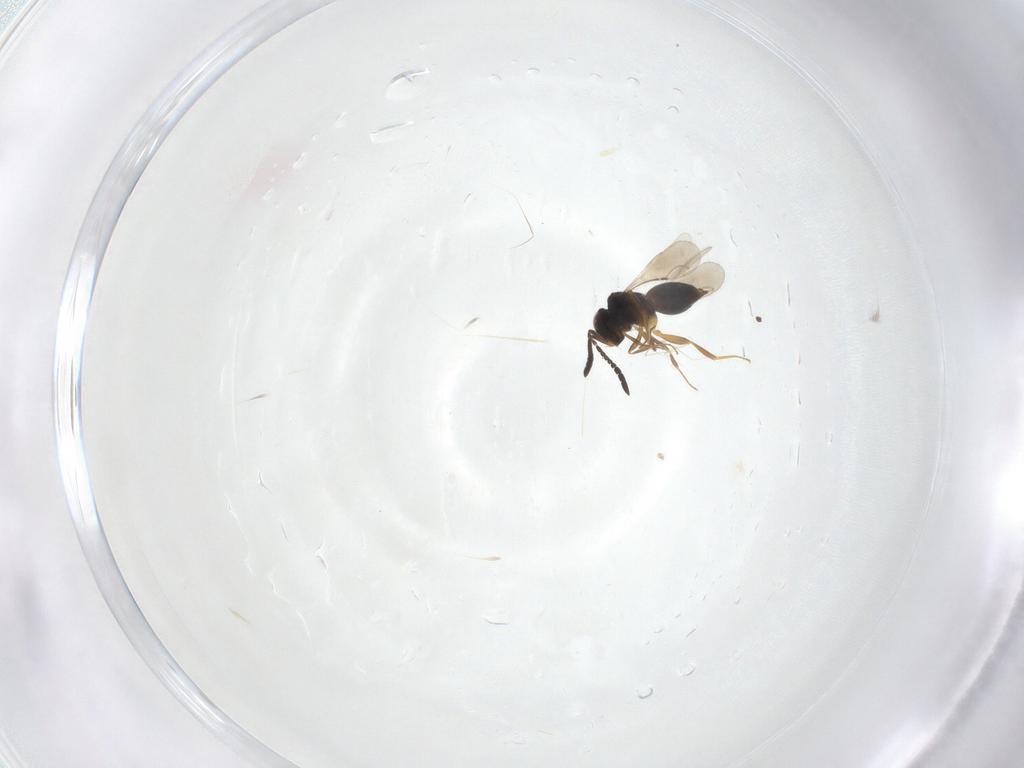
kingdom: Animalia
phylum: Arthropoda
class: Insecta
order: Hymenoptera
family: Ceraphronidae
